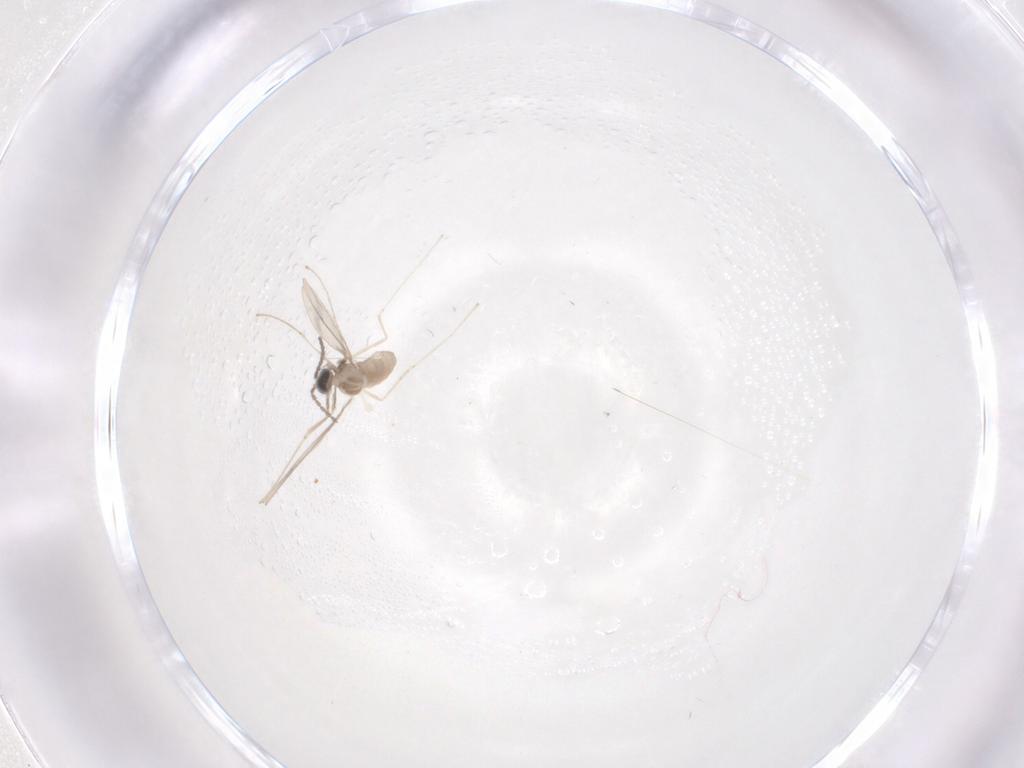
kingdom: Animalia
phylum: Arthropoda
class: Insecta
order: Diptera
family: Cecidomyiidae
